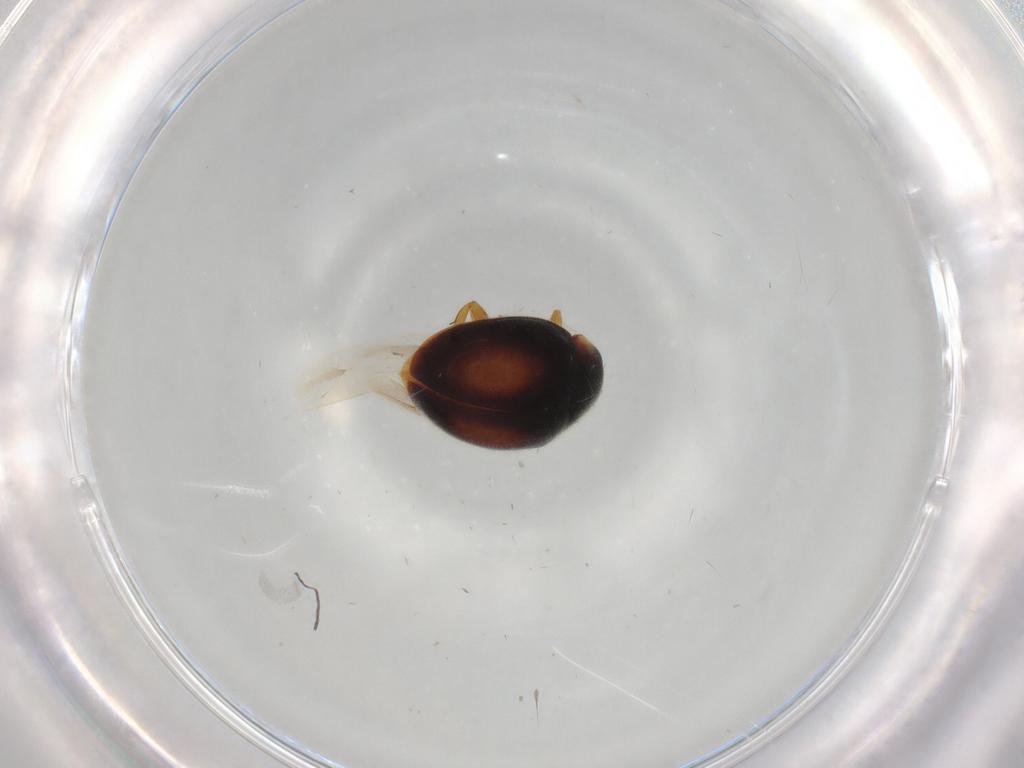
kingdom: Animalia
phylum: Arthropoda
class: Insecta
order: Coleoptera
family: Coccinellidae
